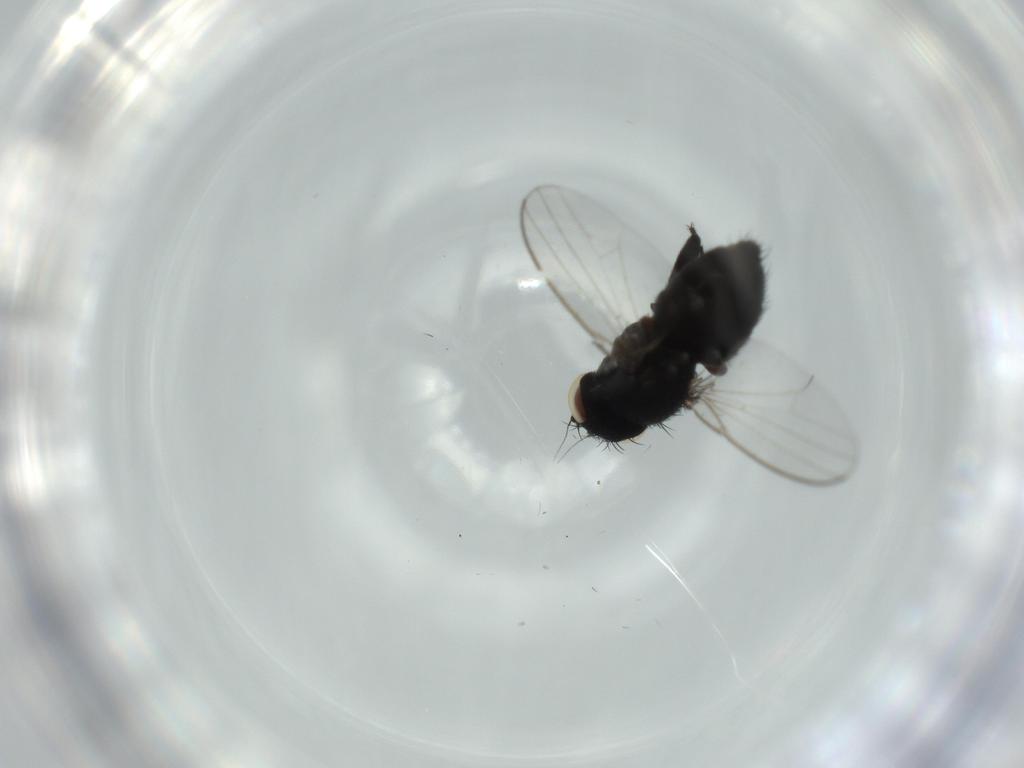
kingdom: Animalia
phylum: Arthropoda
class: Insecta
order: Diptera
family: Milichiidae
